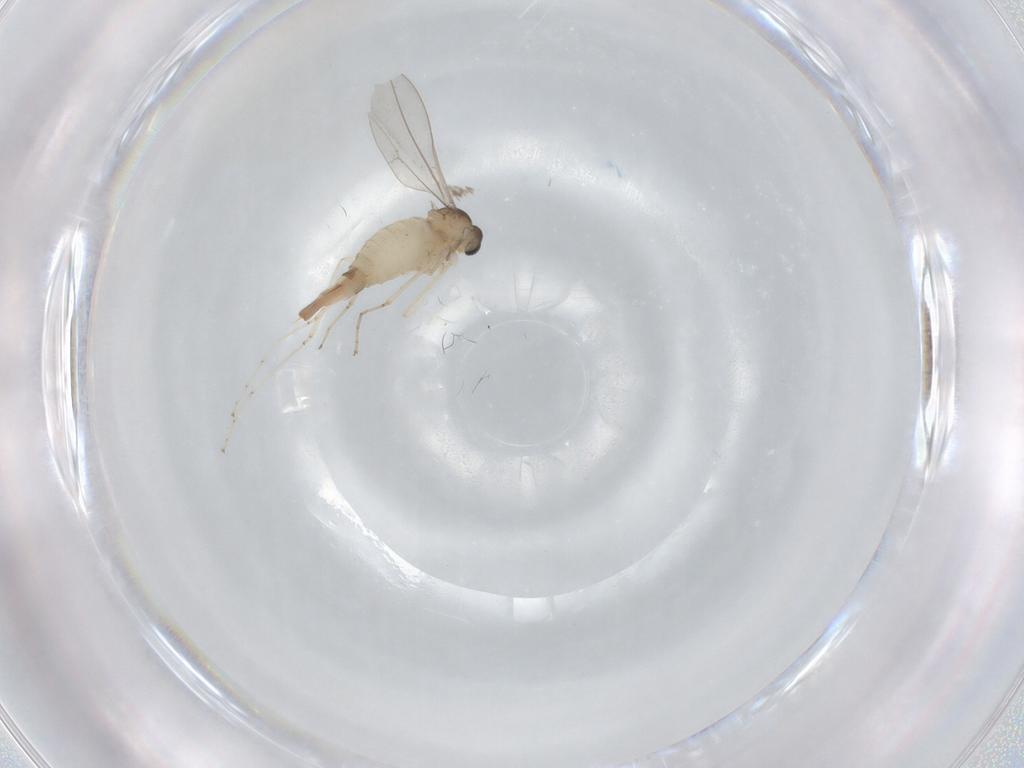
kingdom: Animalia
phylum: Arthropoda
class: Insecta
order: Diptera
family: Cecidomyiidae
